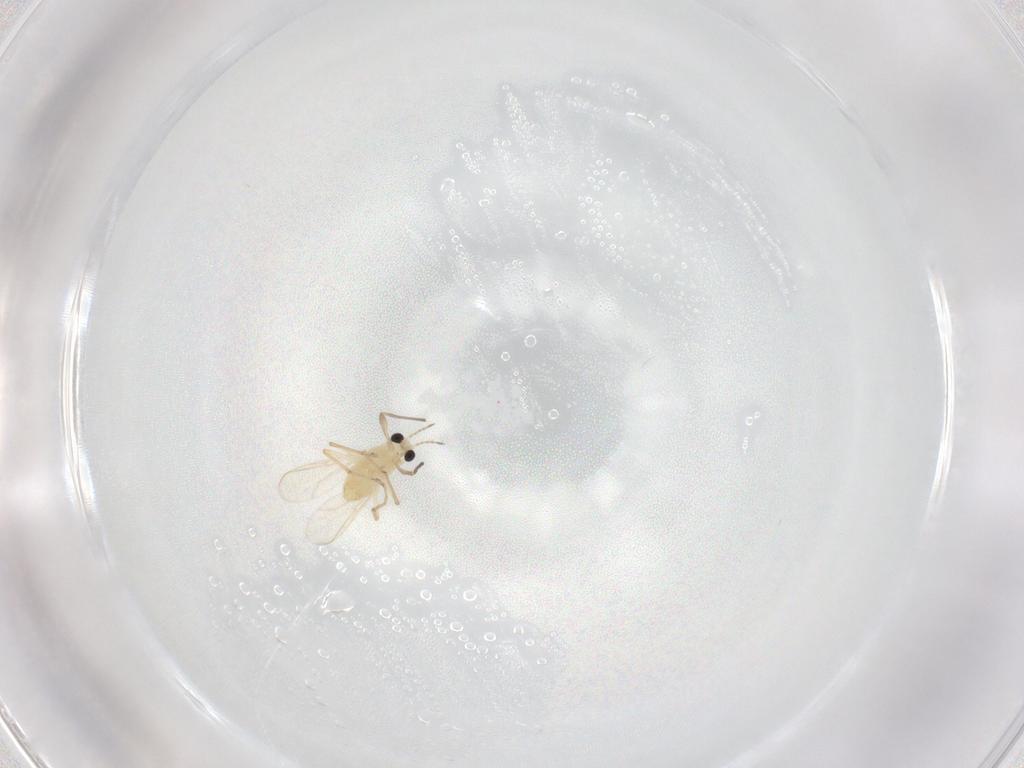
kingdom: Animalia
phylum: Arthropoda
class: Insecta
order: Diptera
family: Chironomidae
